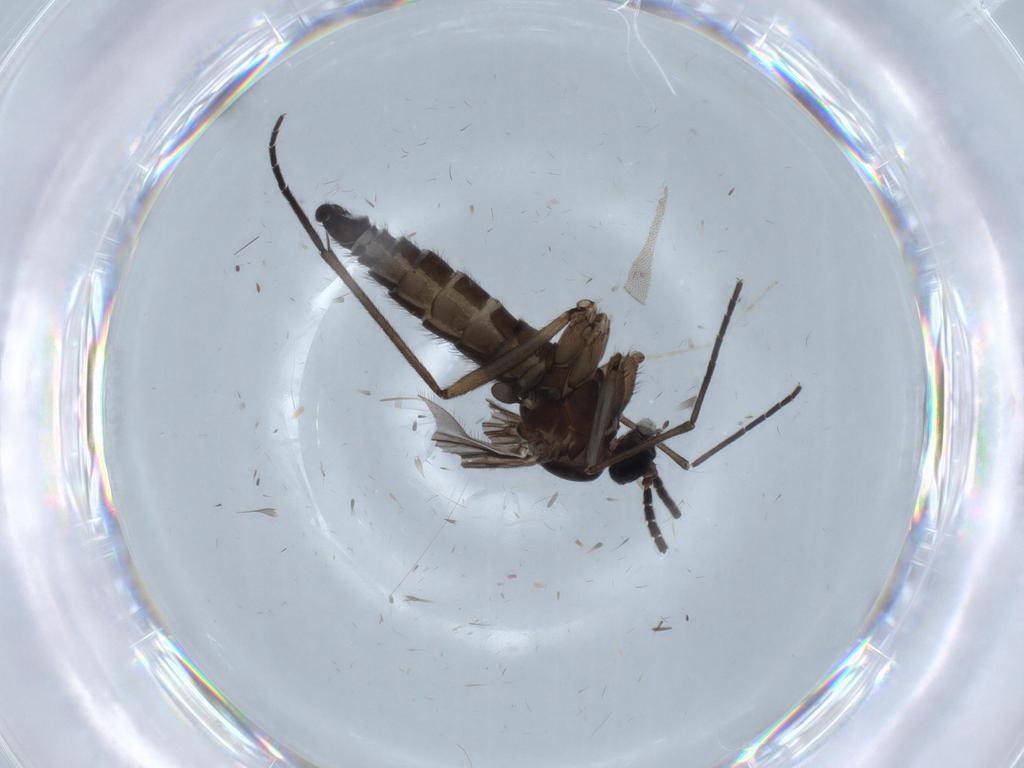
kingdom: Animalia
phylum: Arthropoda
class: Insecta
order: Diptera
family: Sciaridae
